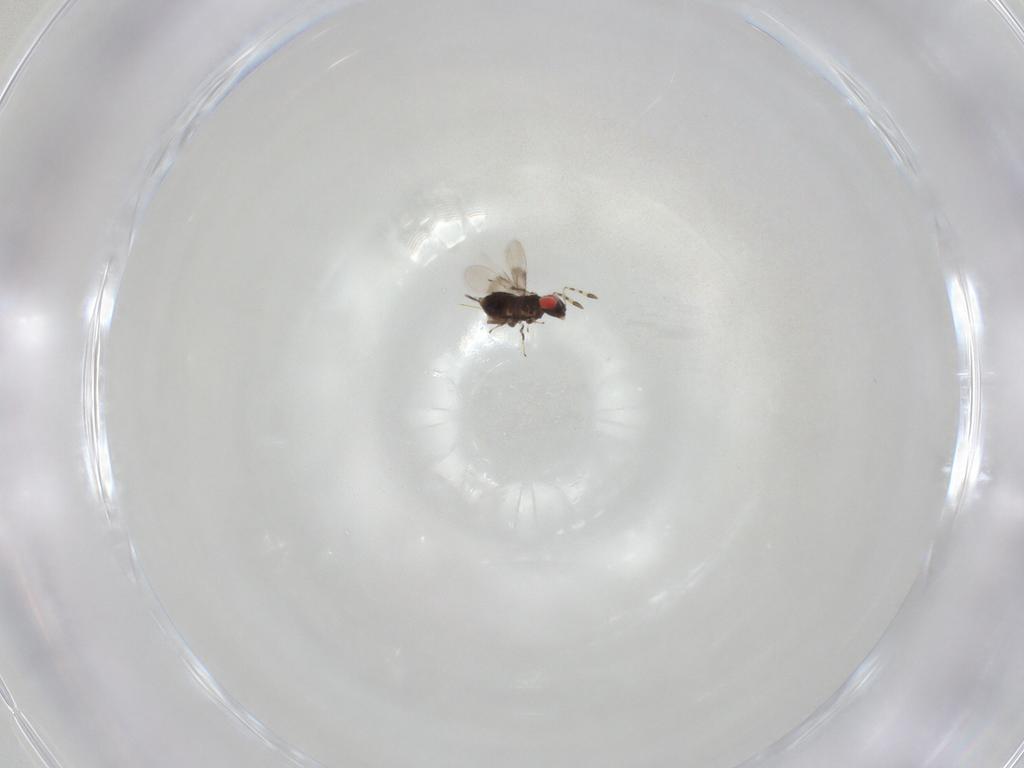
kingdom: Animalia
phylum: Arthropoda
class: Insecta
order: Hymenoptera
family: Azotidae
